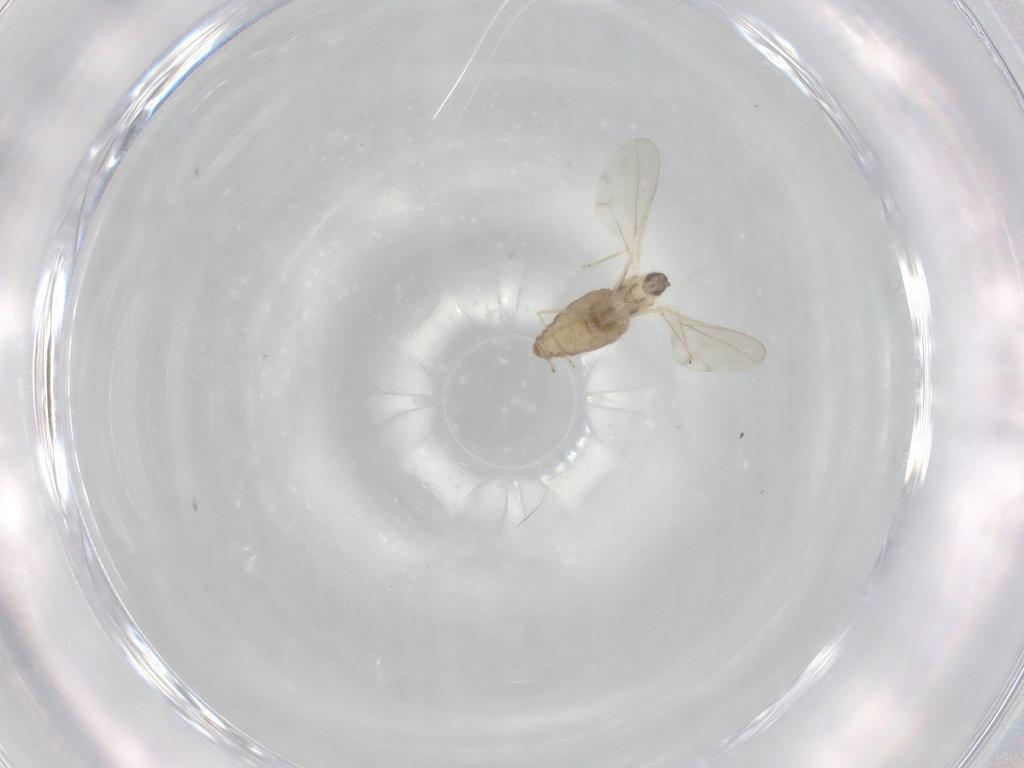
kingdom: Animalia
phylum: Arthropoda
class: Insecta
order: Diptera
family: Cecidomyiidae
